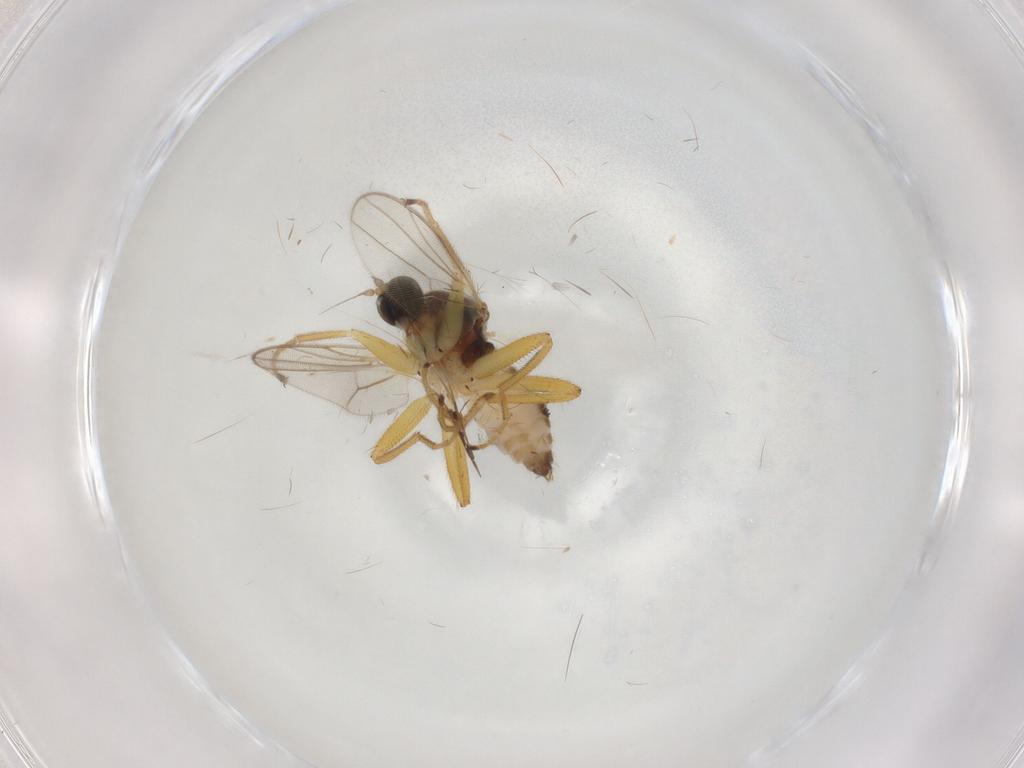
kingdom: Animalia
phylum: Arthropoda
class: Insecta
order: Diptera
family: Hybotidae
